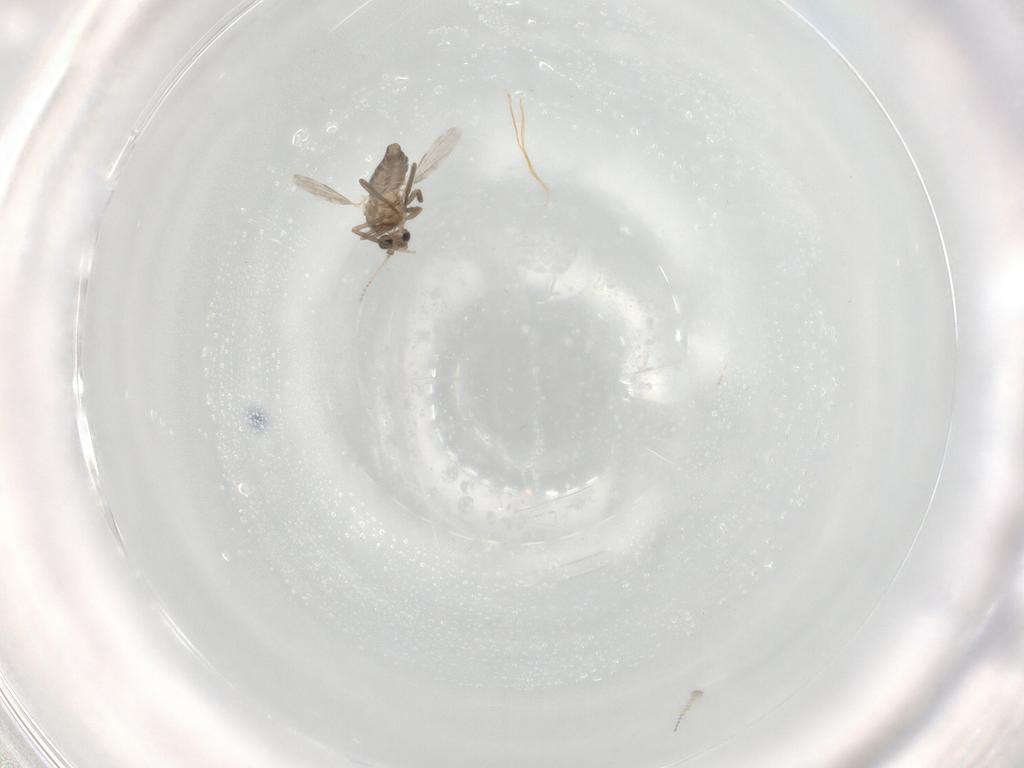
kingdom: Animalia
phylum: Arthropoda
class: Insecta
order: Diptera
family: Ceratopogonidae
